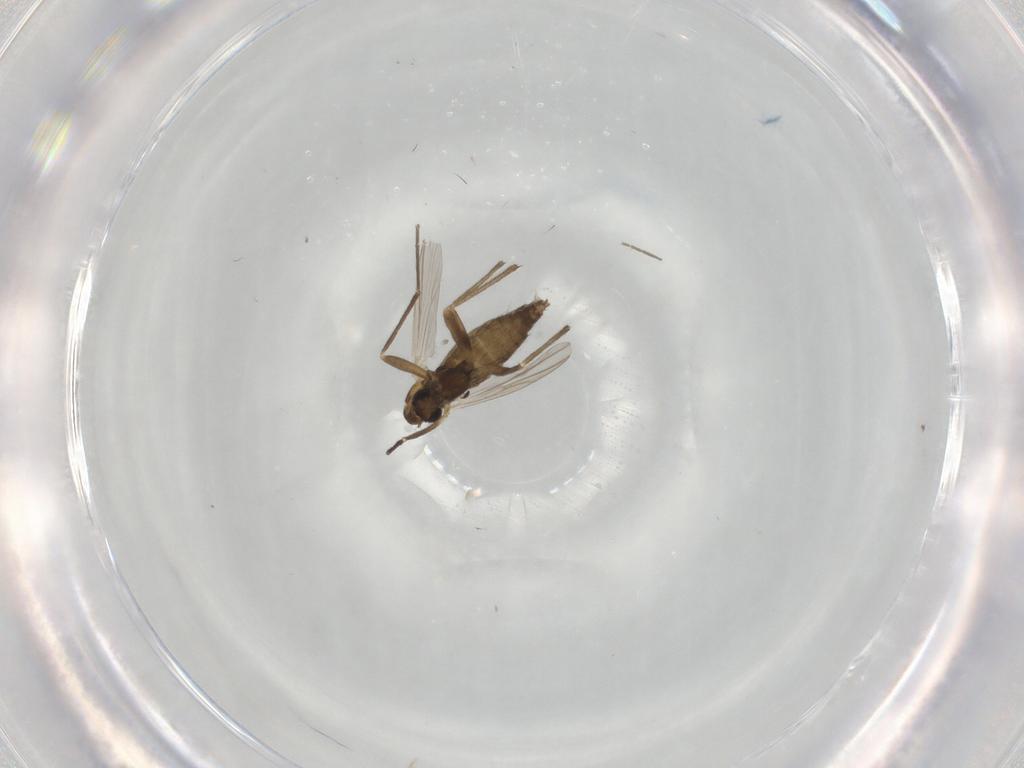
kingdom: Animalia
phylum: Arthropoda
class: Insecta
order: Diptera
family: Chironomidae
